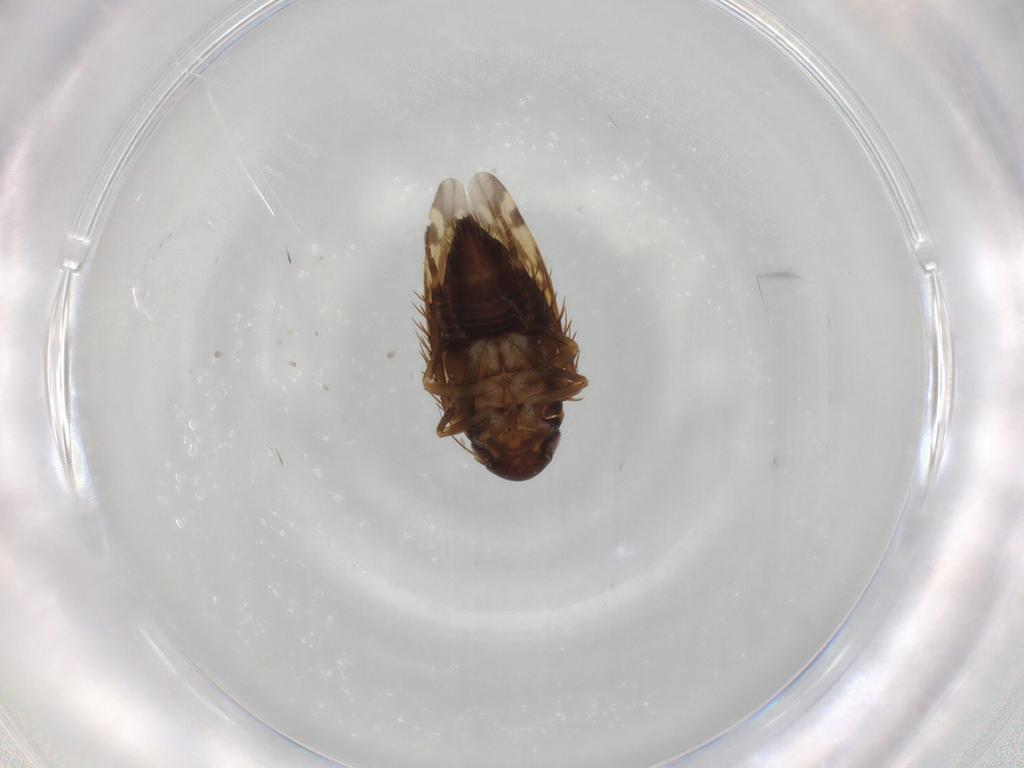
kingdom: Animalia
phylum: Arthropoda
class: Insecta
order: Hemiptera
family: Cicadellidae
